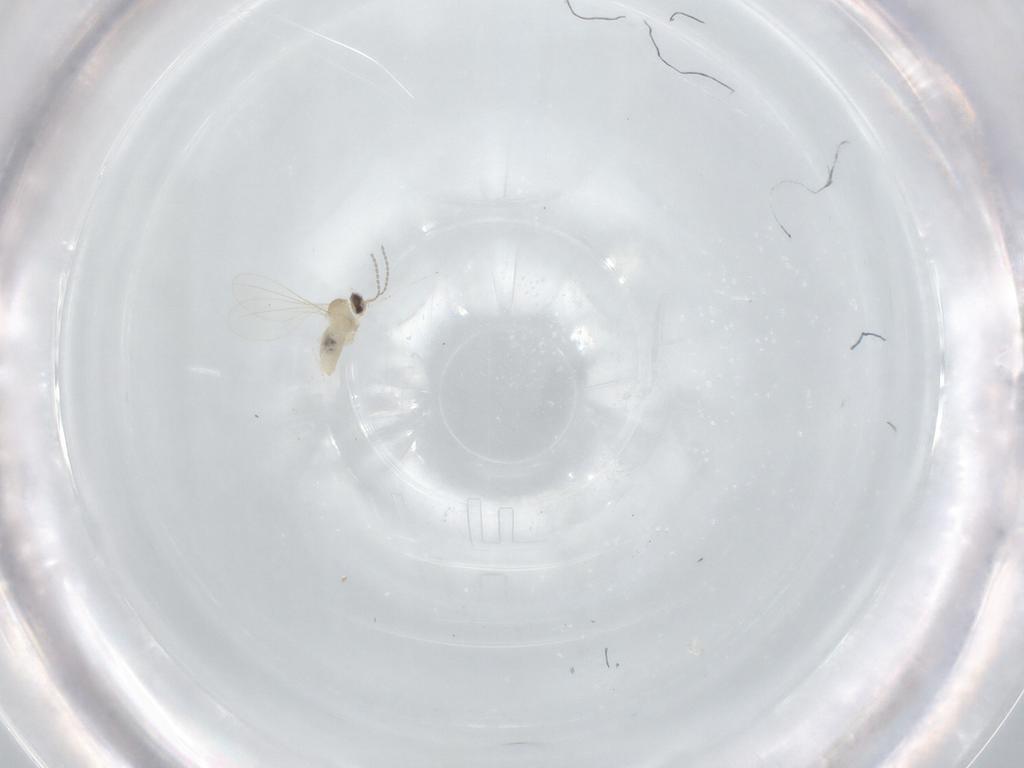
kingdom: Animalia
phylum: Arthropoda
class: Insecta
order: Diptera
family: Cecidomyiidae
